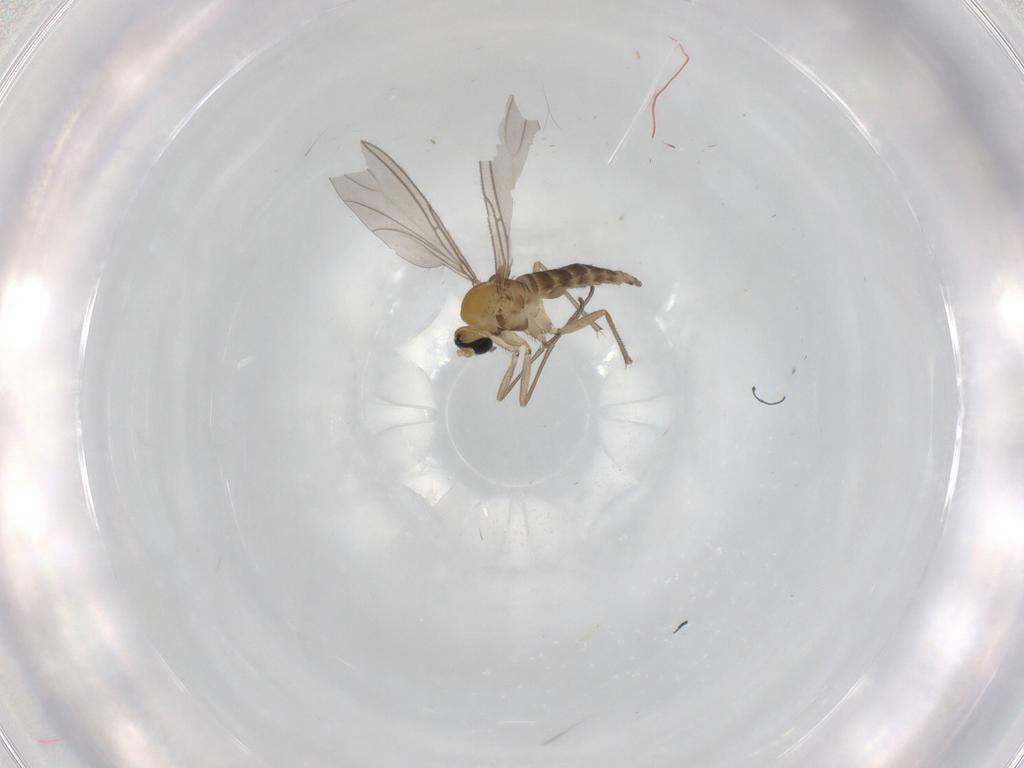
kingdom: Animalia
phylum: Arthropoda
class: Insecta
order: Diptera
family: Sciaridae
